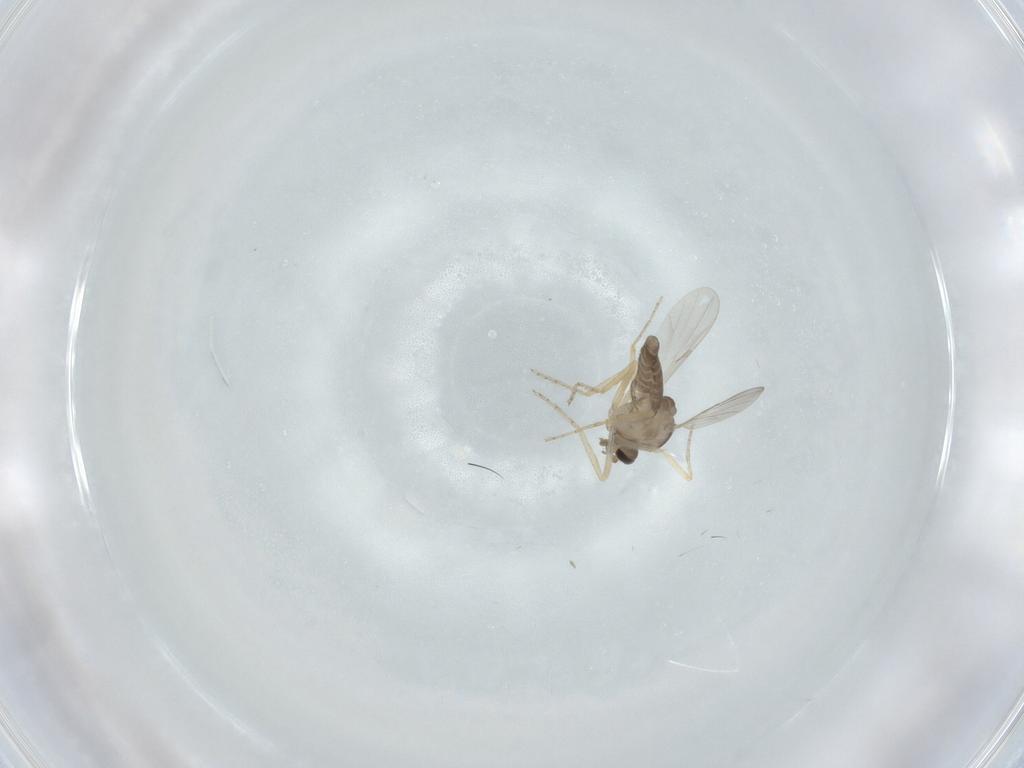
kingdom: Animalia
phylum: Arthropoda
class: Insecta
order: Diptera
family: Ceratopogonidae
